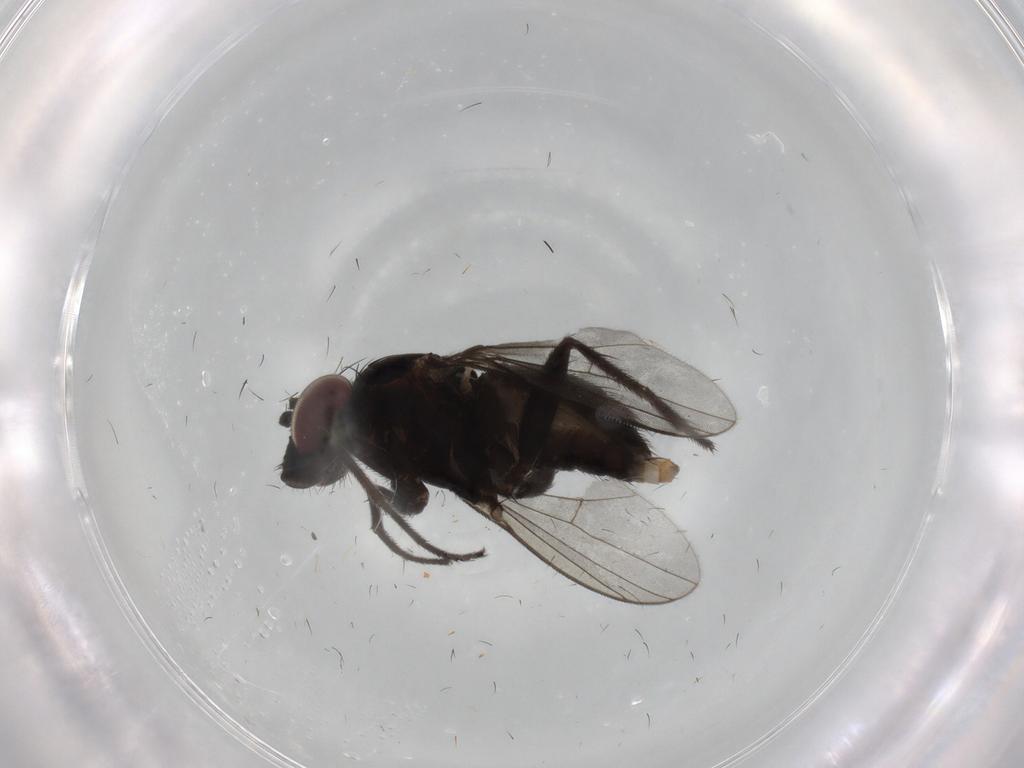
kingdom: Animalia
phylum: Arthropoda
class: Insecta
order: Diptera
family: Dolichopodidae
